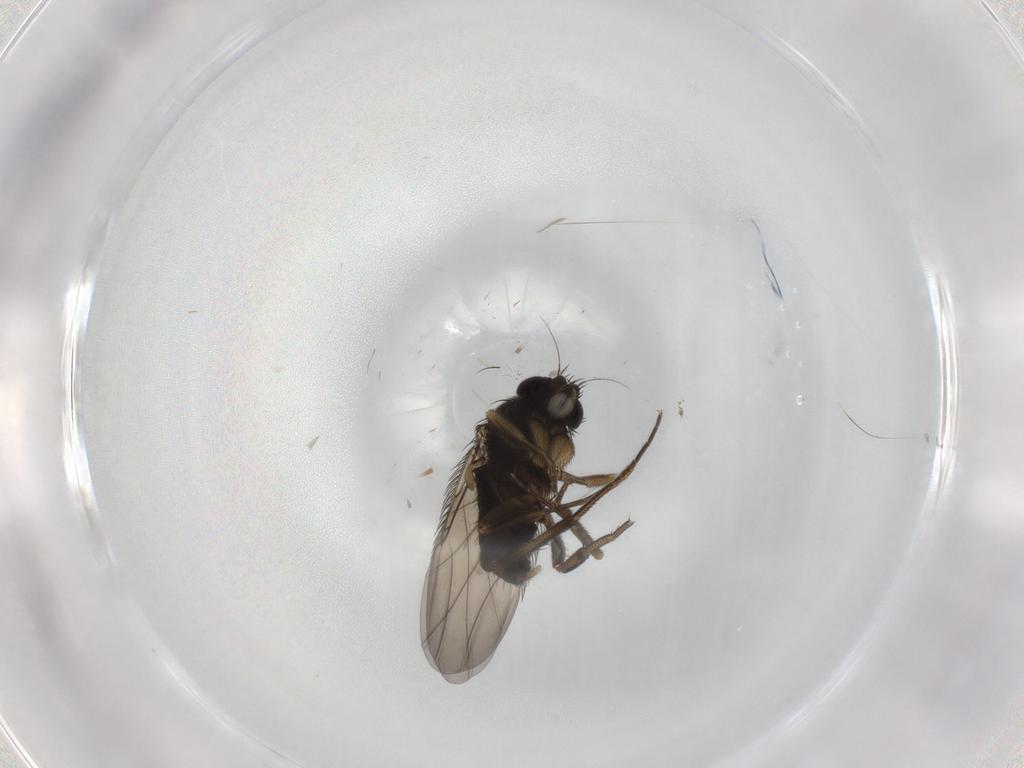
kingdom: Animalia
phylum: Arthropoda
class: Insecta
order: Diptera
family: Phoridae
